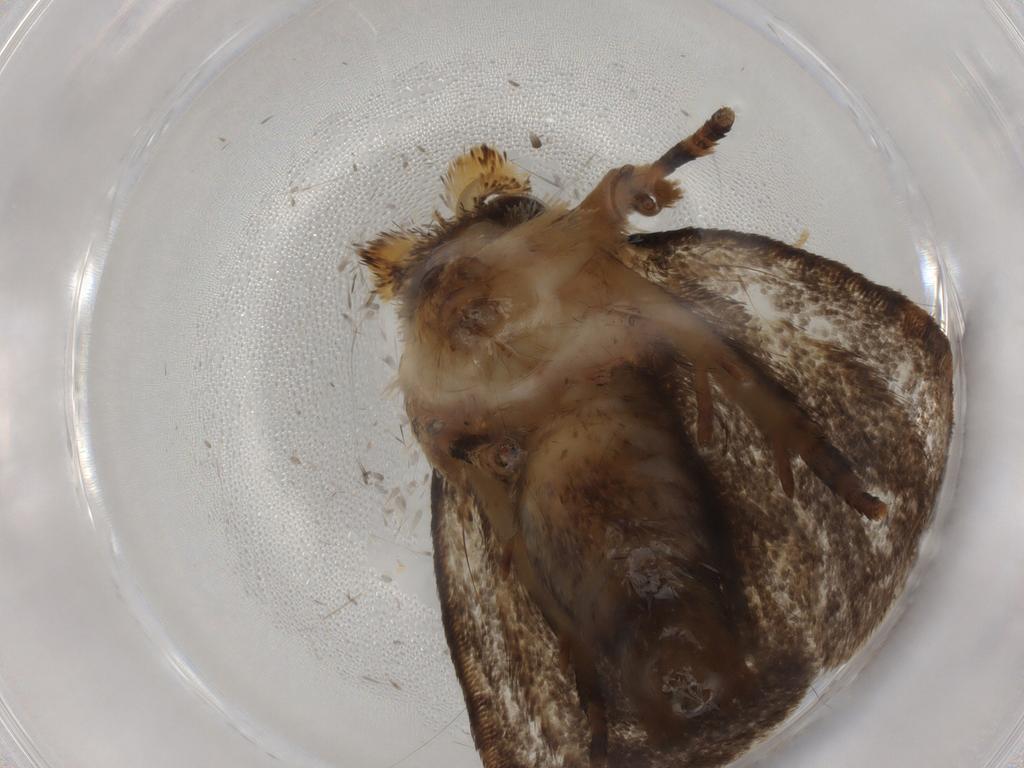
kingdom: Animalia
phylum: Arthropoda
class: Insecta
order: Lepidoptera
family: Tineidae
